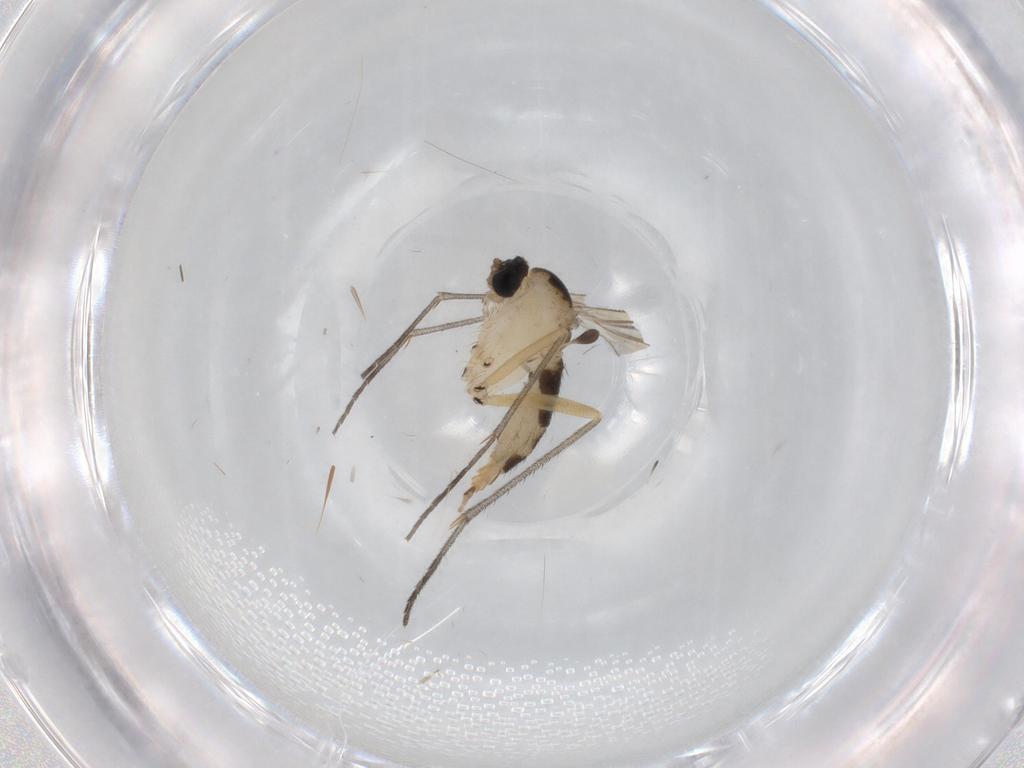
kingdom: Animalia
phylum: Arthropoda
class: Insecta
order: Diptera
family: Sciaridae
